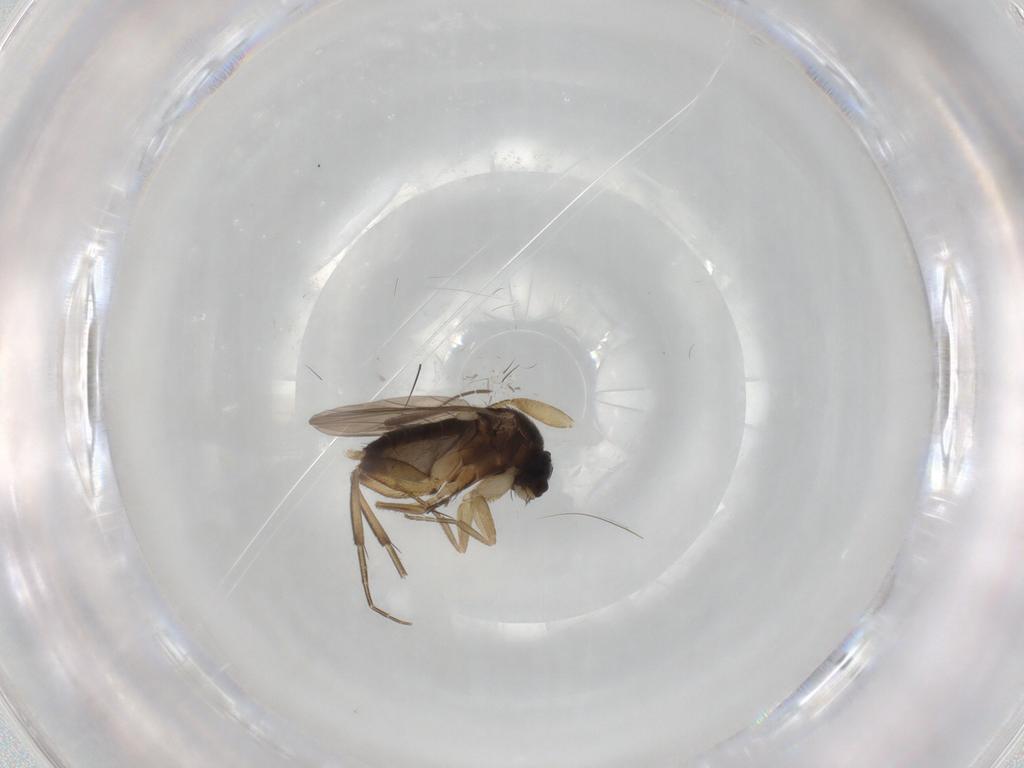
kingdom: Animalia
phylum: Arthropoda
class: Insecta
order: Diptera
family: Phoridae
